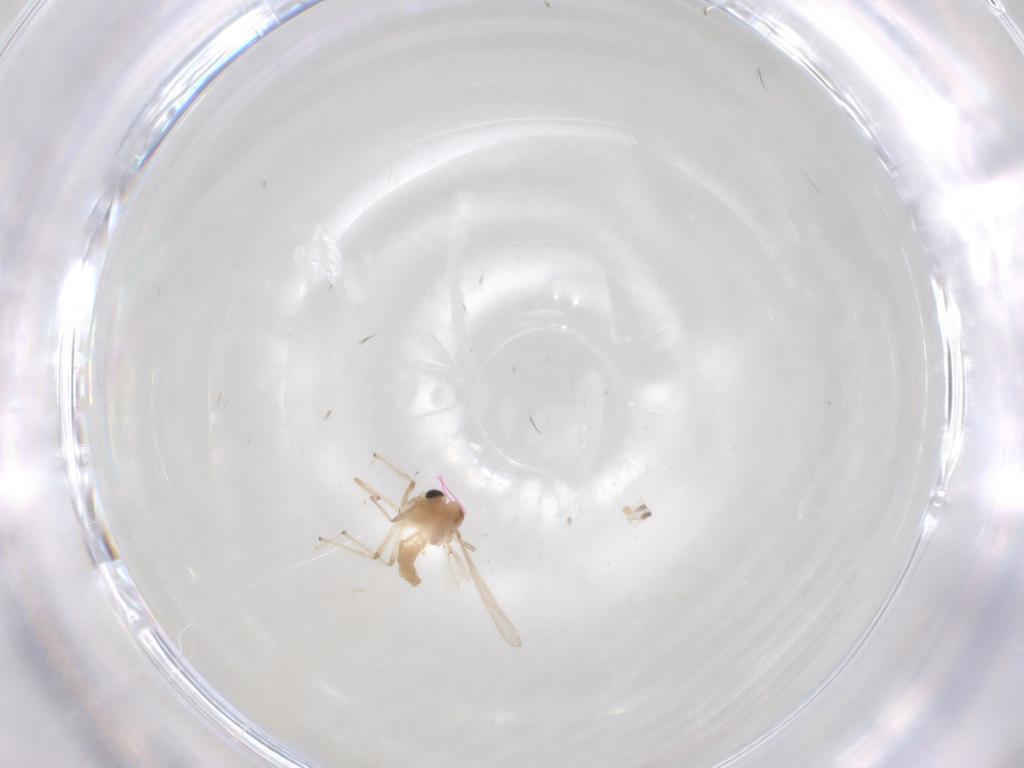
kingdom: Animalia
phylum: Arthropoda
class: Insecta
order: Diptera
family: Chironomidae
